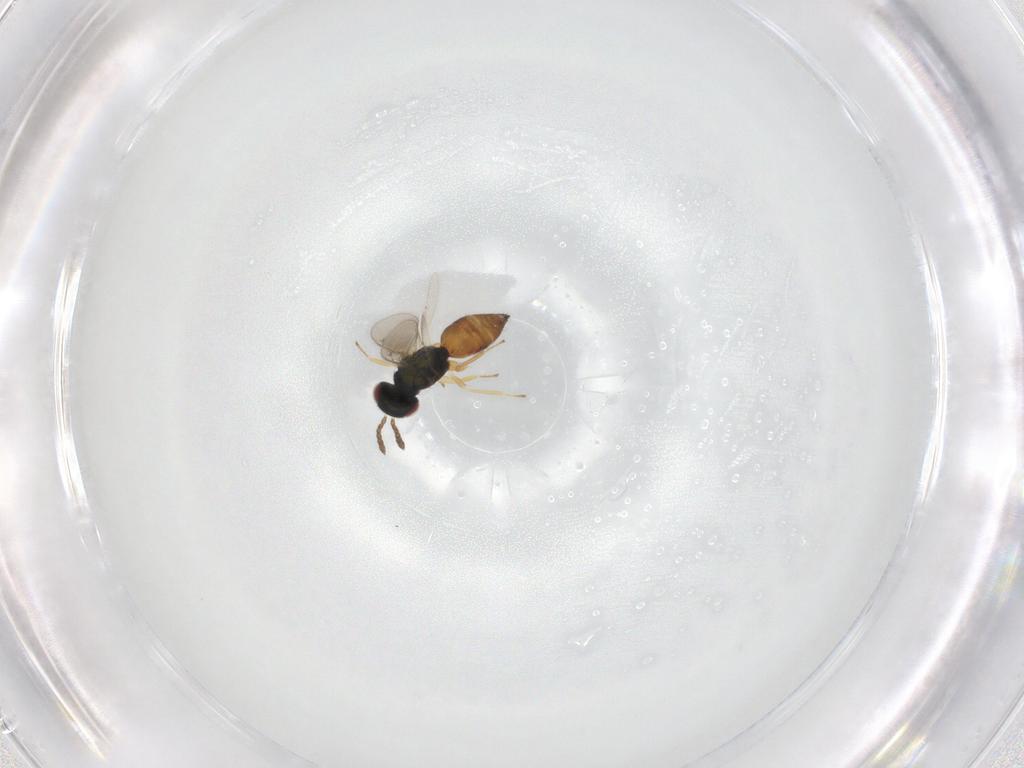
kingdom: Animalia
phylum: Arthropoda
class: Insecta
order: Hymenoptera
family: Eulophidae
